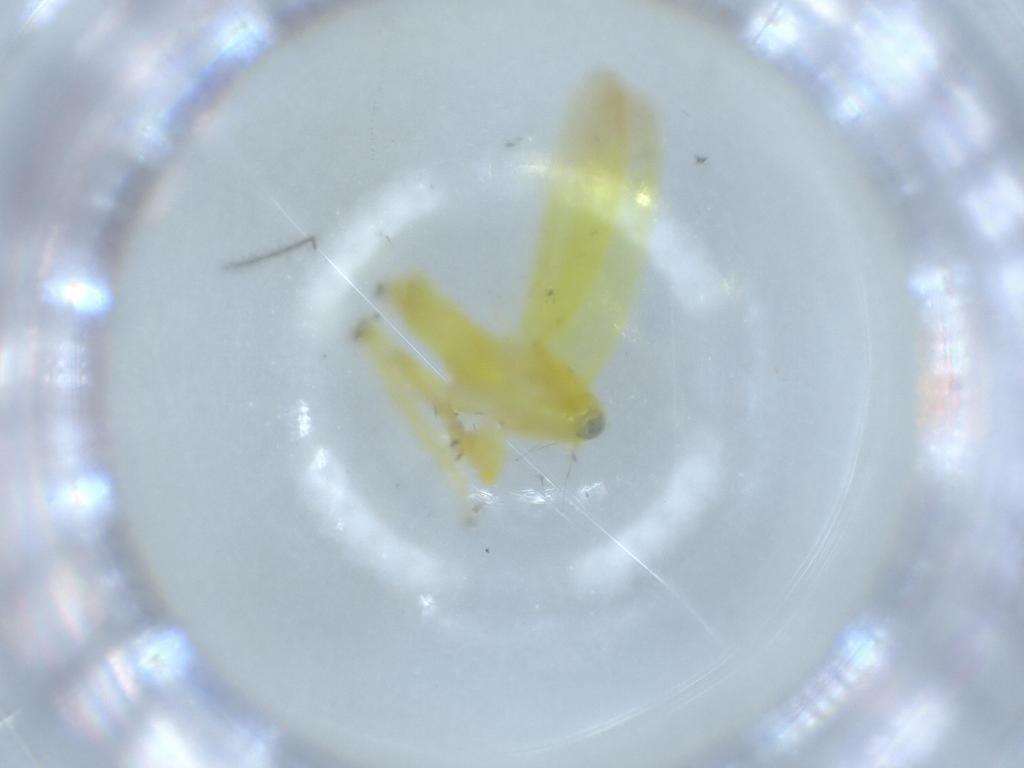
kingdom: Animalia
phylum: Arthropoda
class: Insecta
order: Hemiptera
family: Cicadellidae
